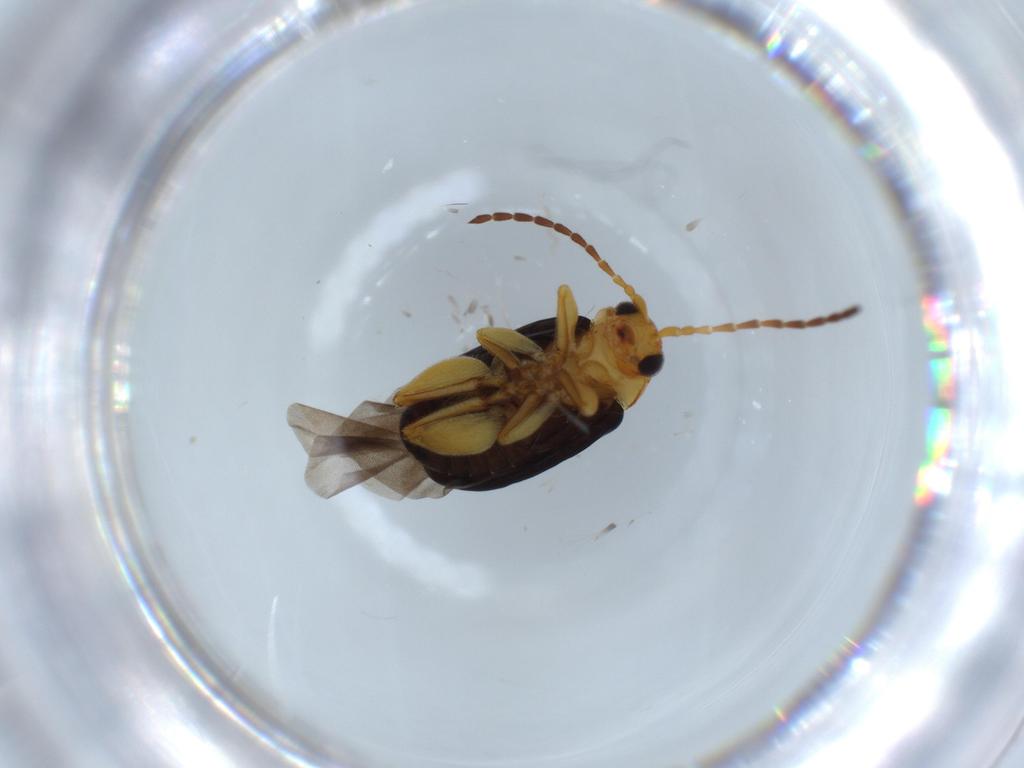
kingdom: Animalia
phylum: Arthropoda
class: Insecta
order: Coleoptera
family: Chrysomelidae
